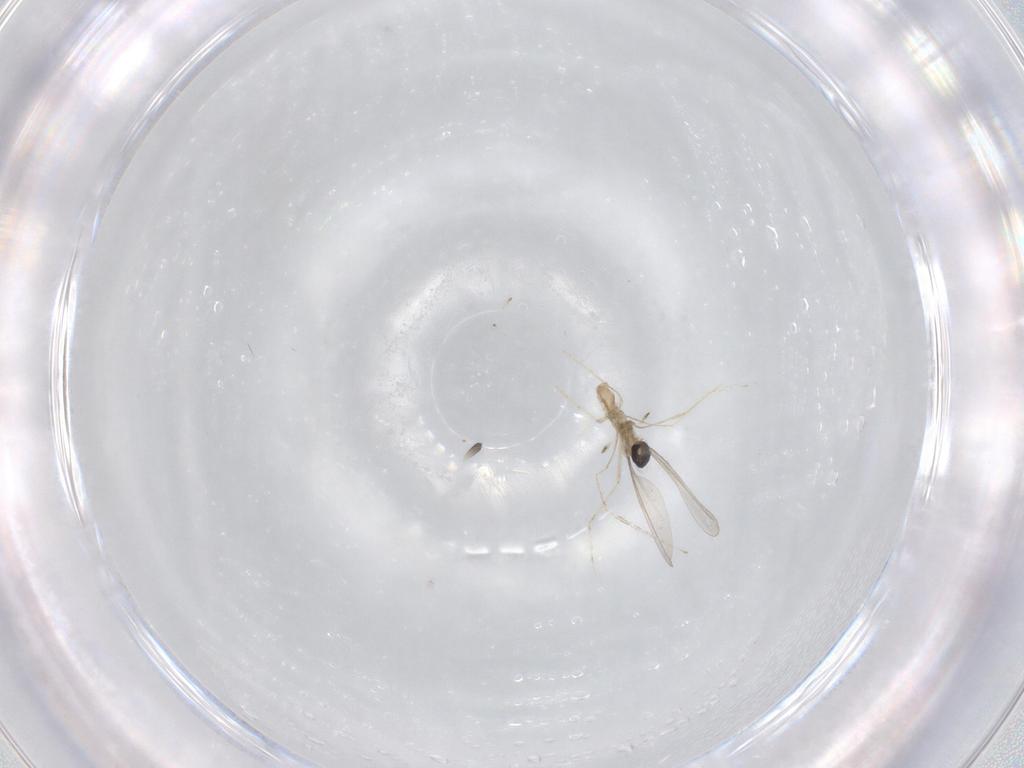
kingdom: Animalia
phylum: Arthropoda
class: Insecta
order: Diptera
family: Cecidomyiidae
